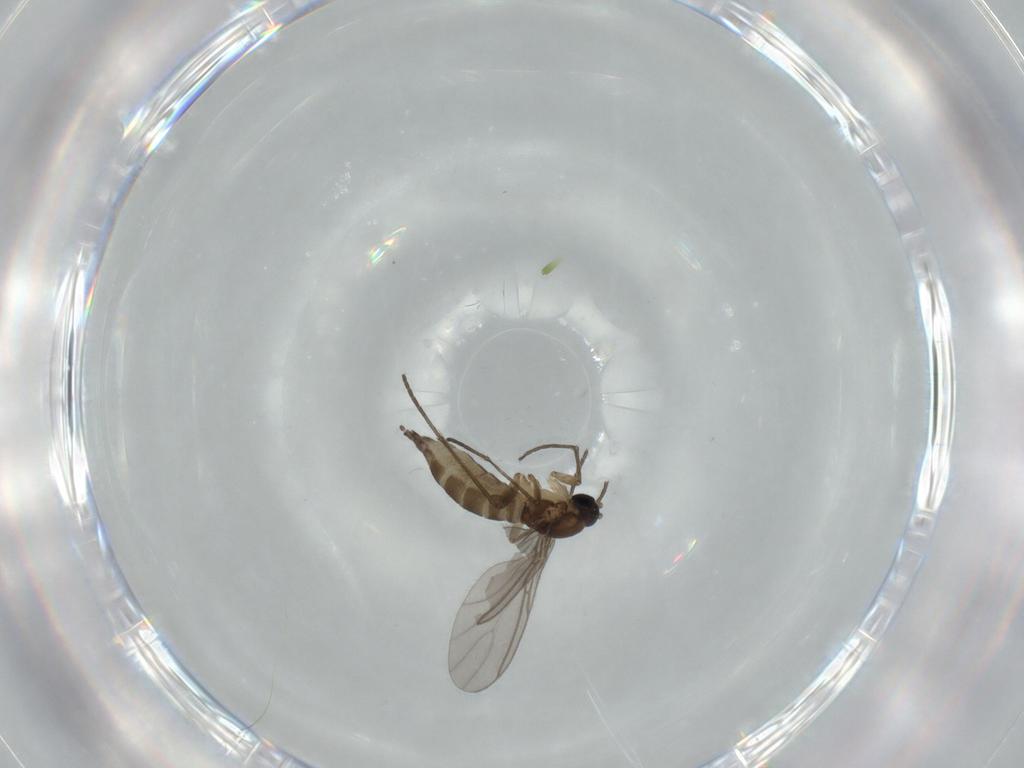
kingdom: Animalia
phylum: Arthropoda
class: Insecta
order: Diptera
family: Sciaridae
